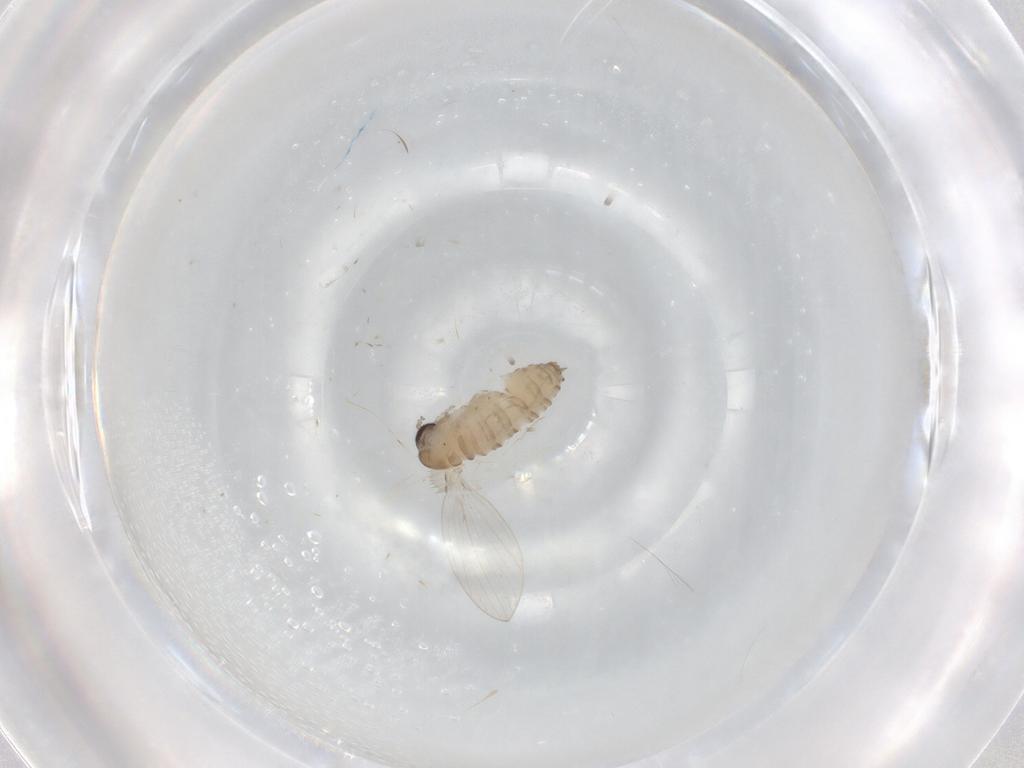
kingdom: Animalia
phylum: Arthropoda
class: Insecta
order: Diptera
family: Psychodidae
